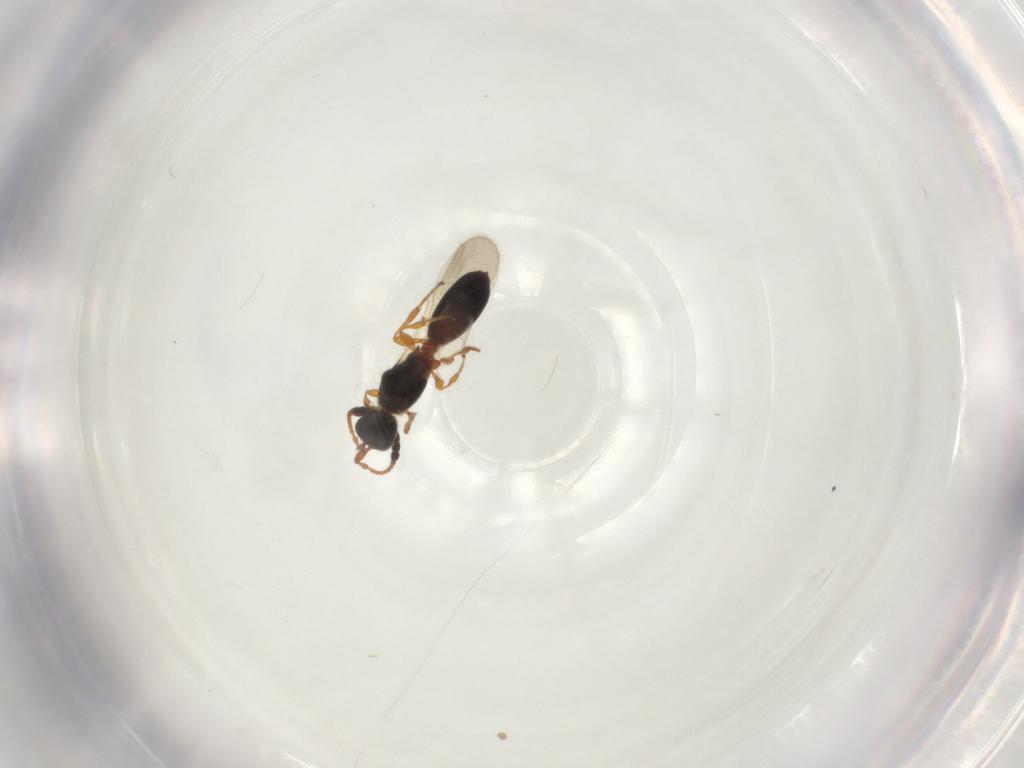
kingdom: Animalia
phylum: Arthropoda
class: Insecta
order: Hymenoptera
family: Diapriidae
